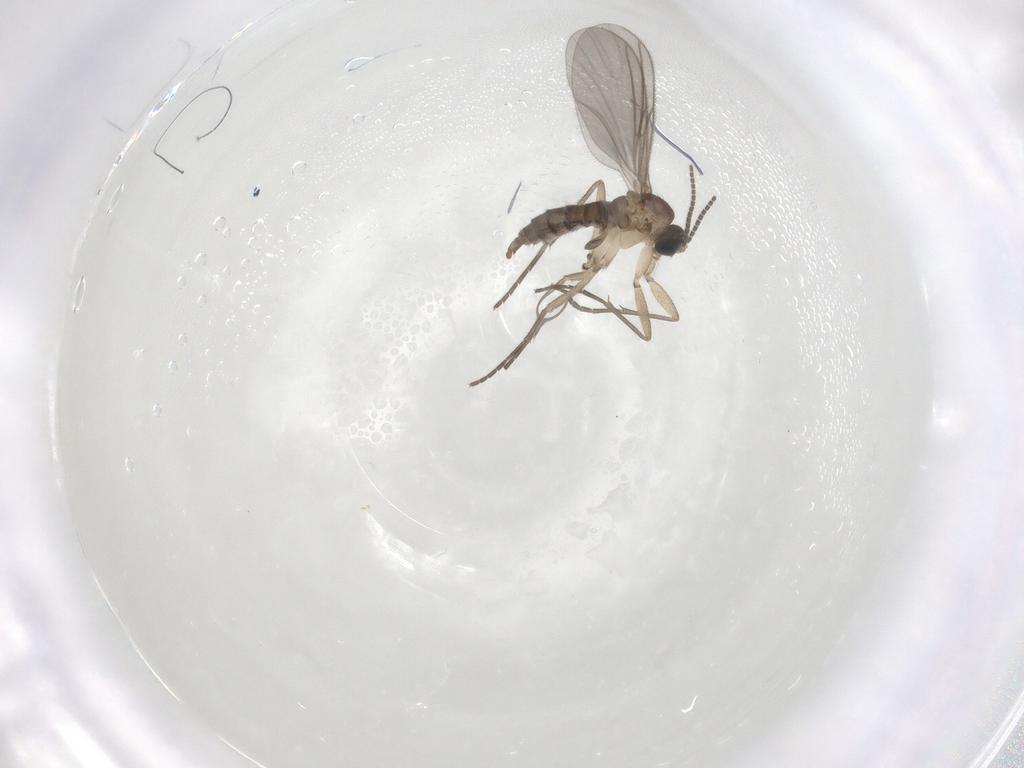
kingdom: Animalia
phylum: Arthropoda
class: Insecta
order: Diptera
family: Sciaridae
